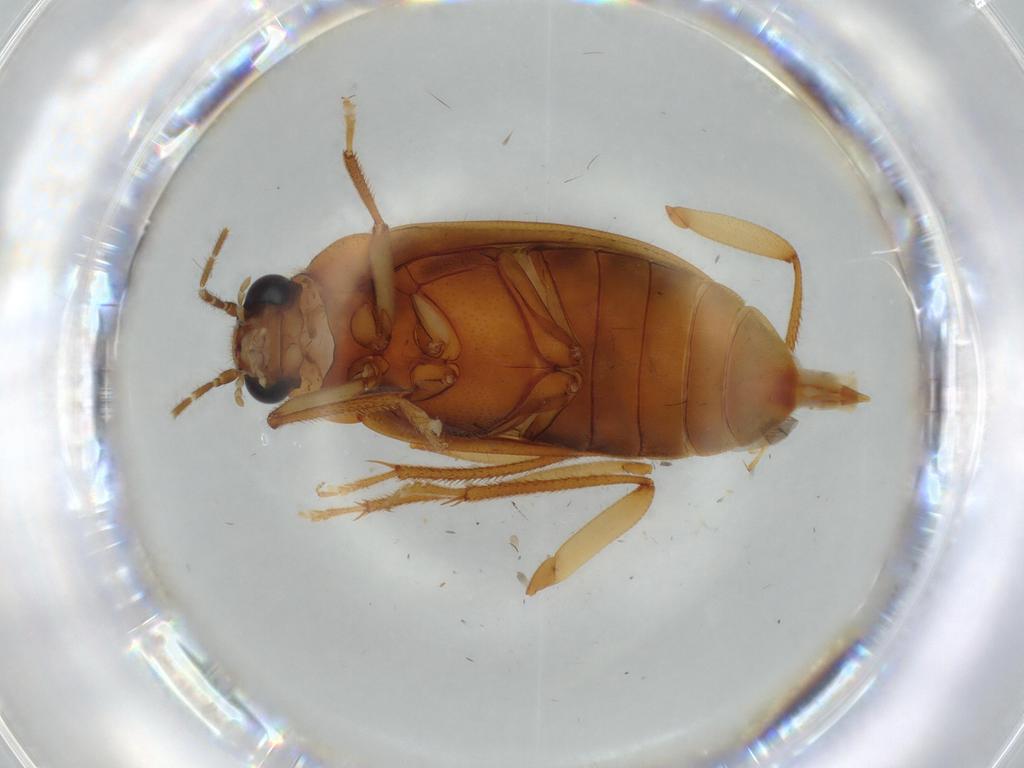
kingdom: Animalia
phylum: Arthropoda
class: Insecta
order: Coleoptera
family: Ptilodactylidae
